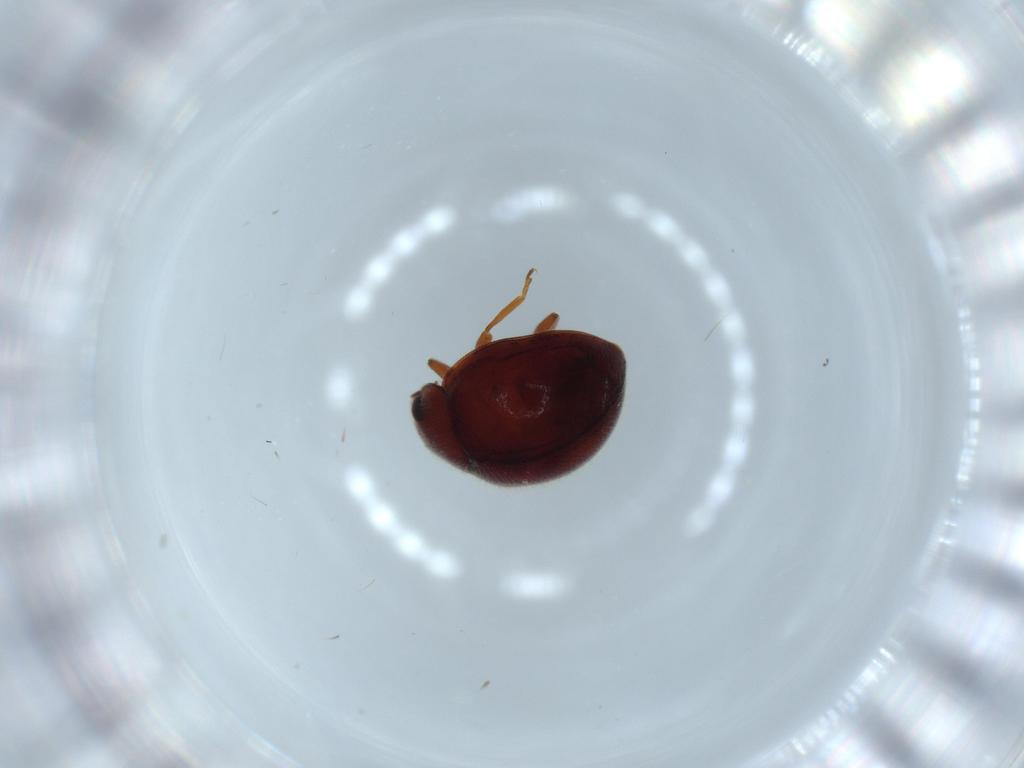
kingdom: Animalia
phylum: Arthropoda
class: Insecta
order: Coleoptera
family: Coccinellidae
